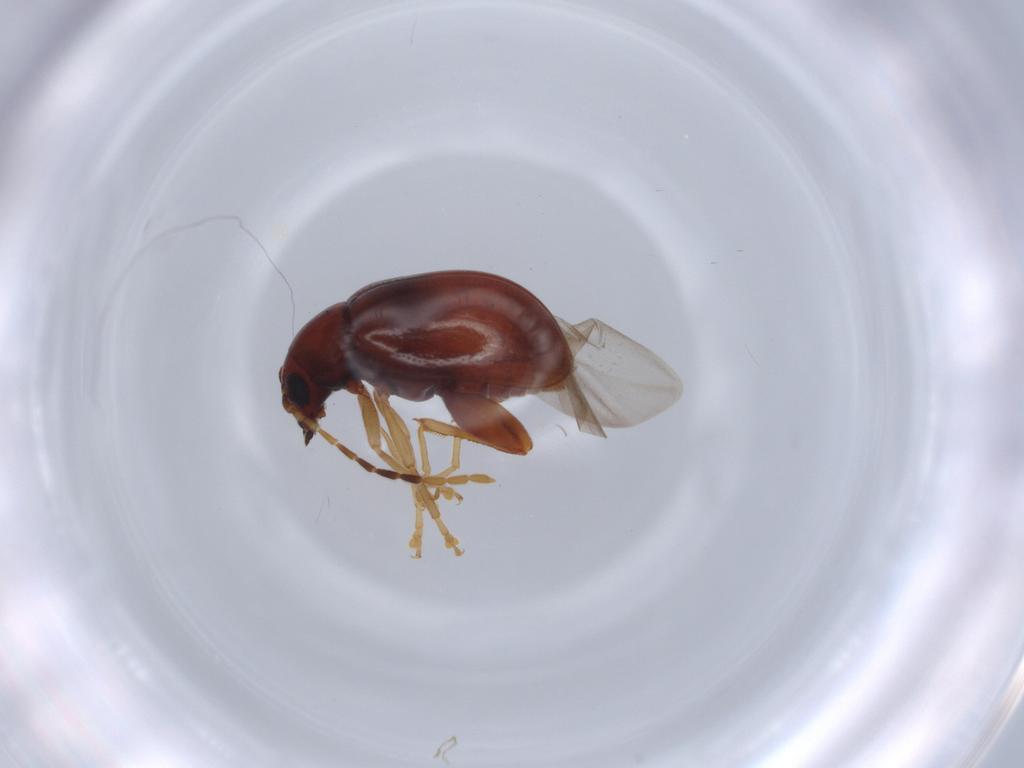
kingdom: Animalia
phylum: Arthropoda
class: Insecta
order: Coleoptera
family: Chrysomelidae
